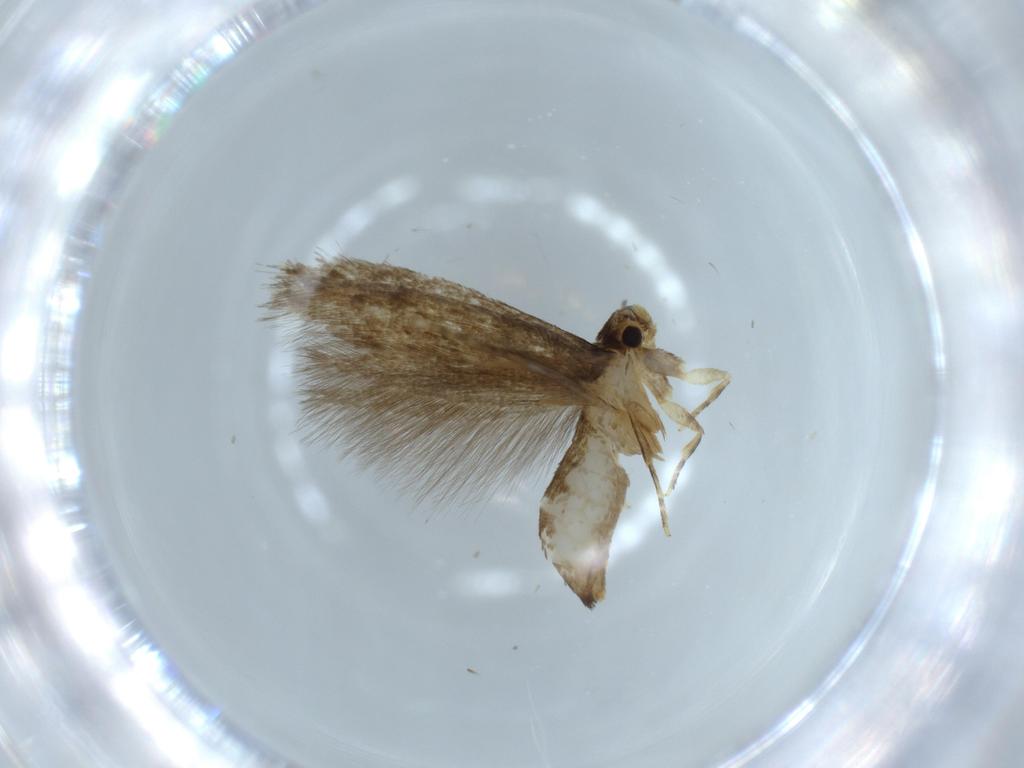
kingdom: Animalia
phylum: Arthropoda
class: Insecta
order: Lepidoptera
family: Tineidae
